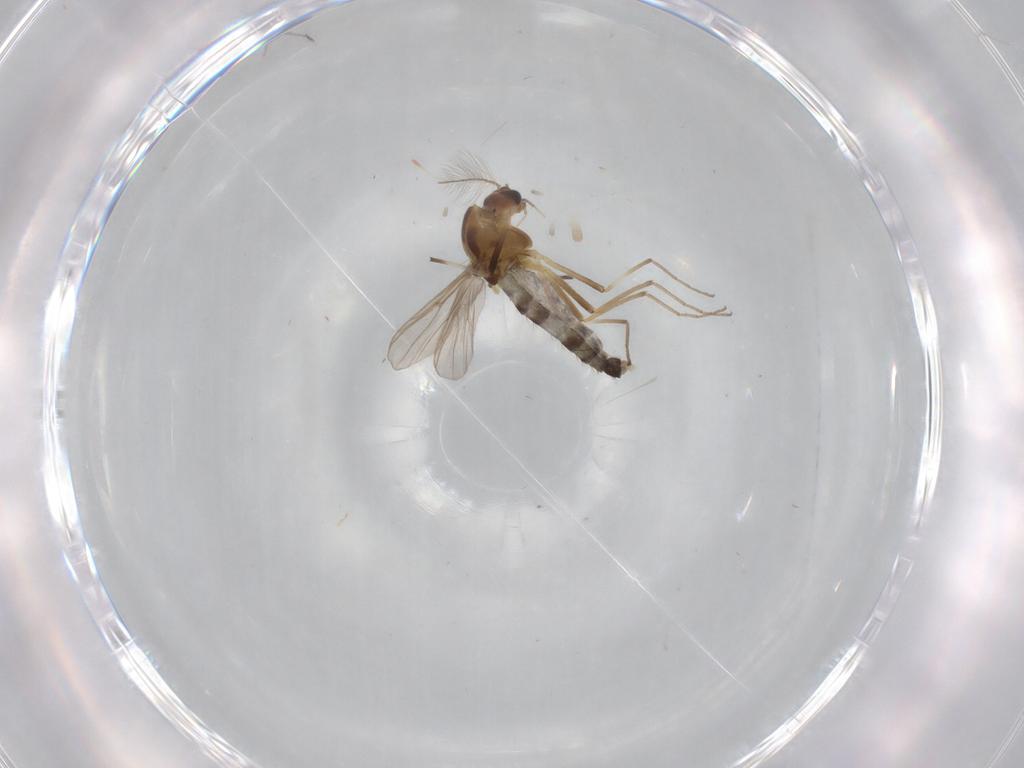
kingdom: Animalia
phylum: Arthropoda
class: Insecta
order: Diptera
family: Chironomidae
